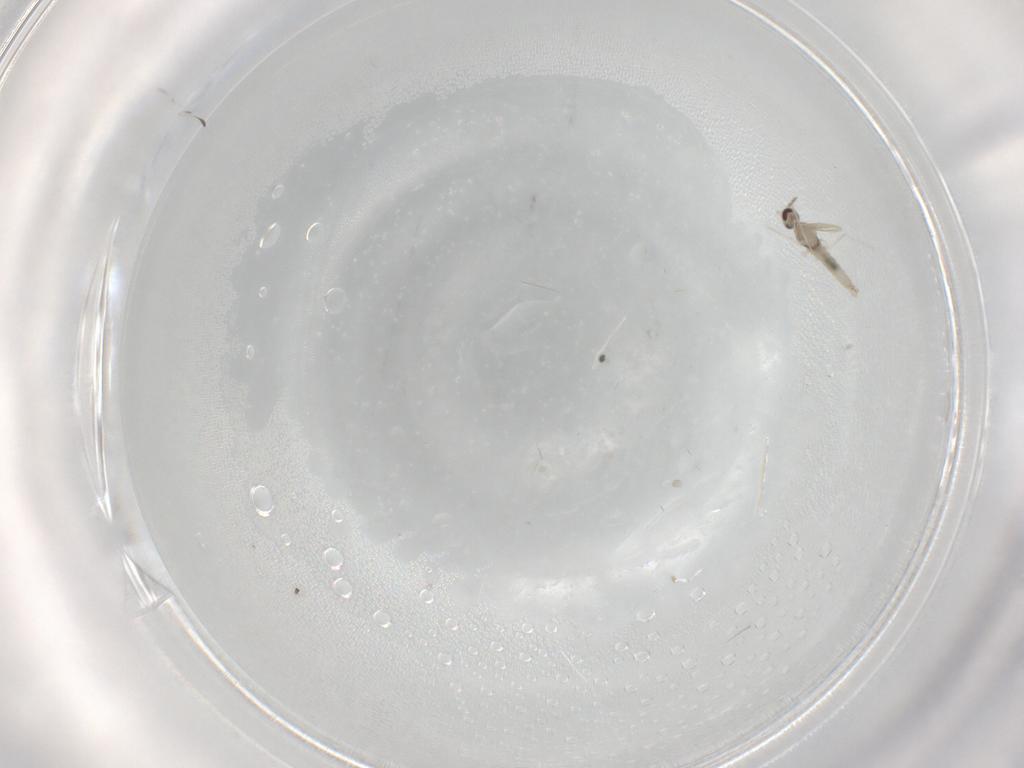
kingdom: Animalia
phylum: Arthropoda
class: Insecta
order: Diptera
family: Cecidomyiidae
